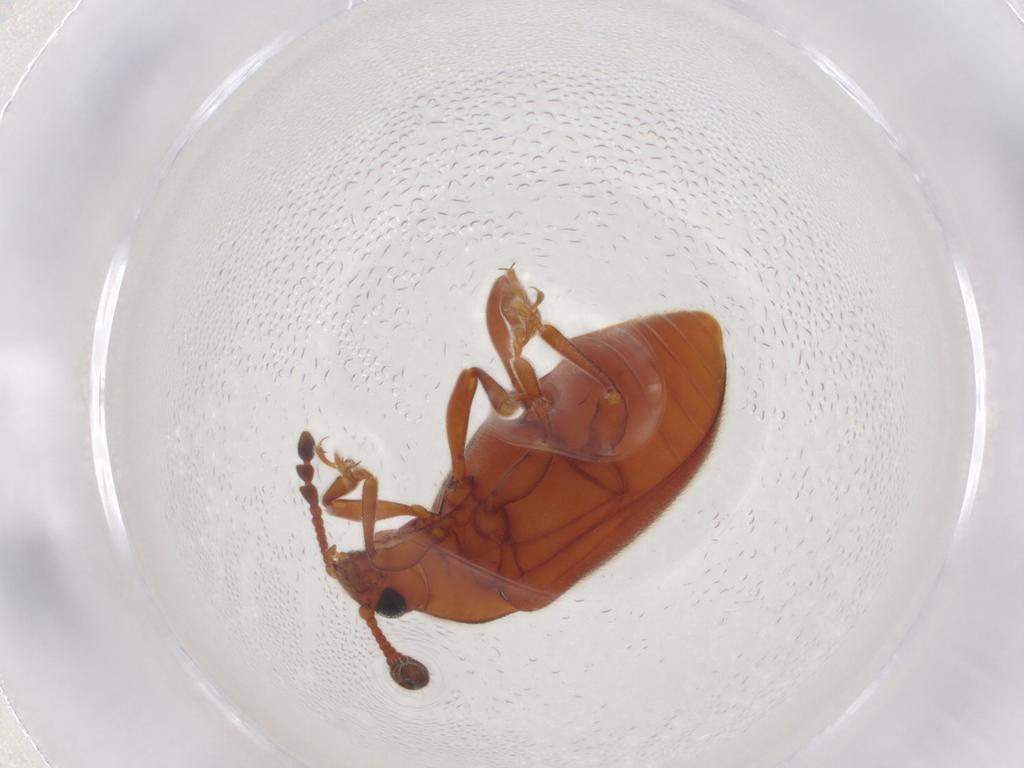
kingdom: Animalia
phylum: Arthropoda
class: Insecta
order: Coleoptera
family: Endomychidae
